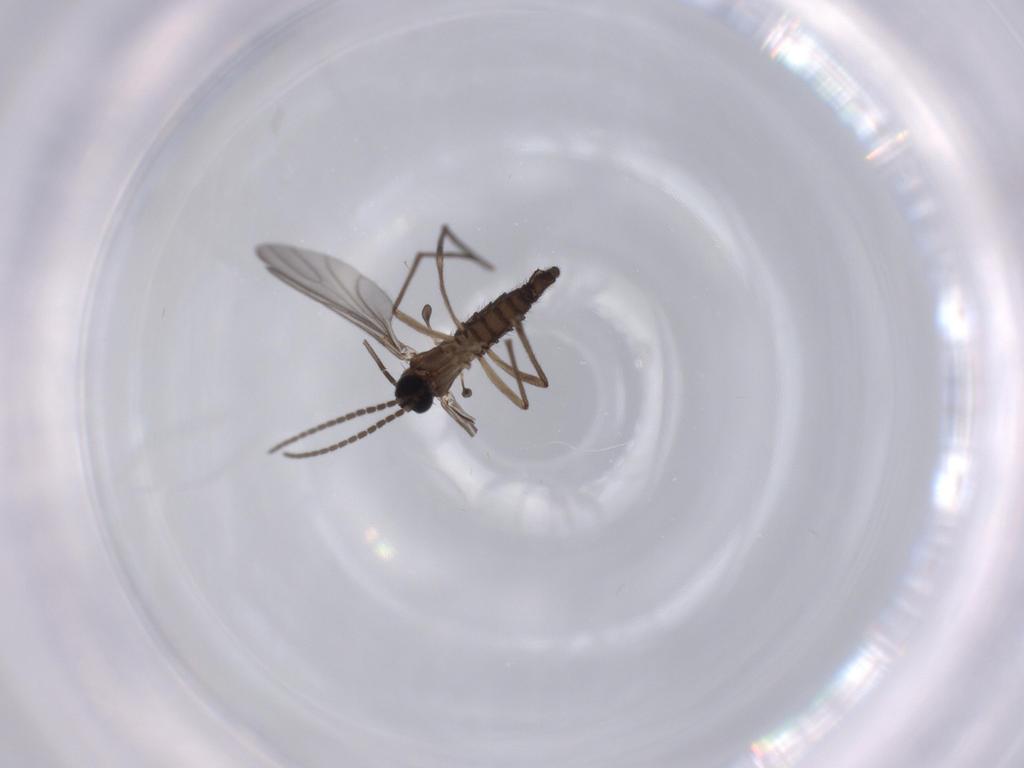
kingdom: Animalia
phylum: Arthropoda
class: Insecta
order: Diptera
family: Sciaridae
